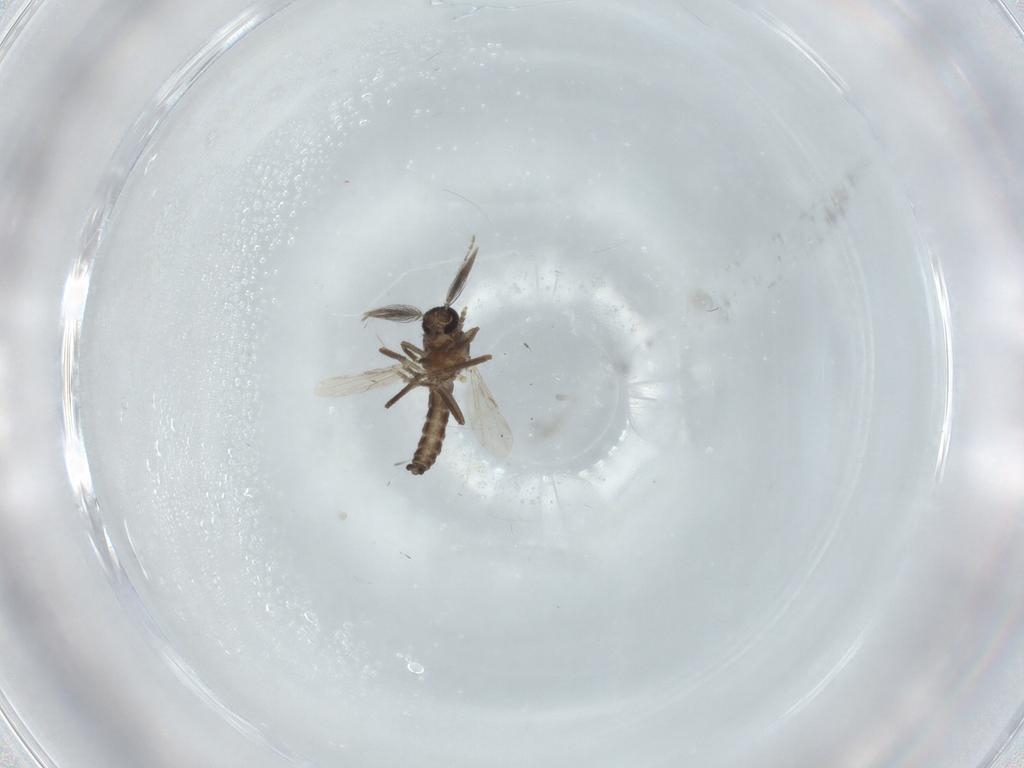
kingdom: Animalia
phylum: Arthropoda
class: Insecta
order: Diptera
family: Ceratopogonidae
